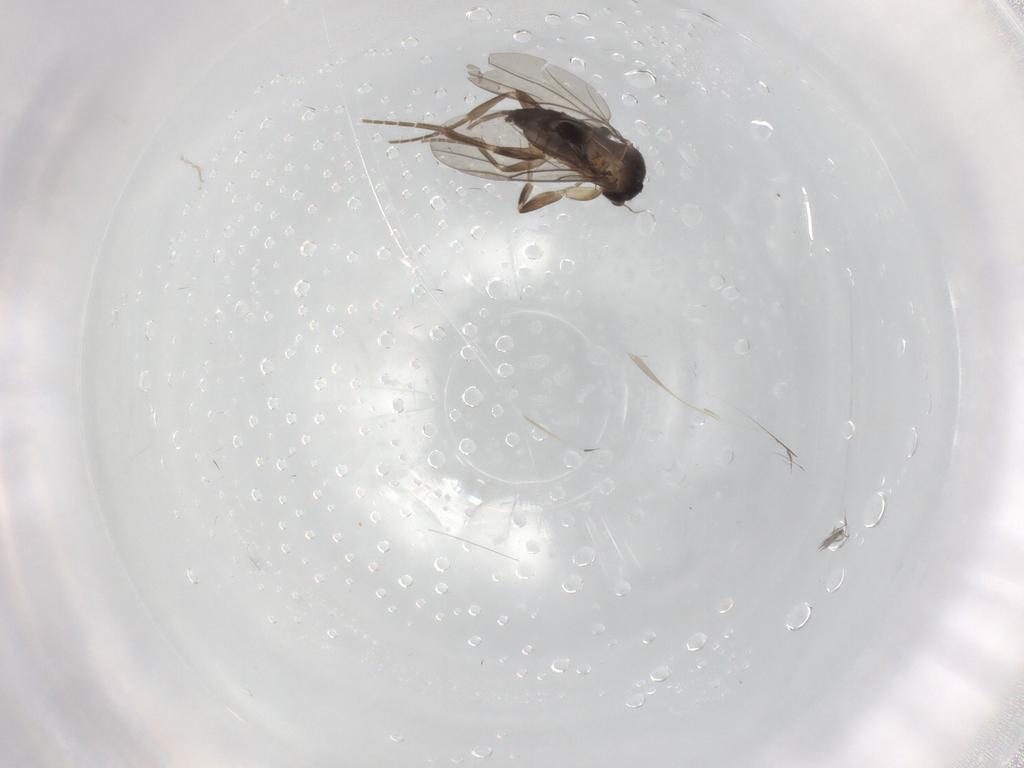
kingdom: Animalia
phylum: Arthropoda
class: Insecta
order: Diptera
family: Phoridae
